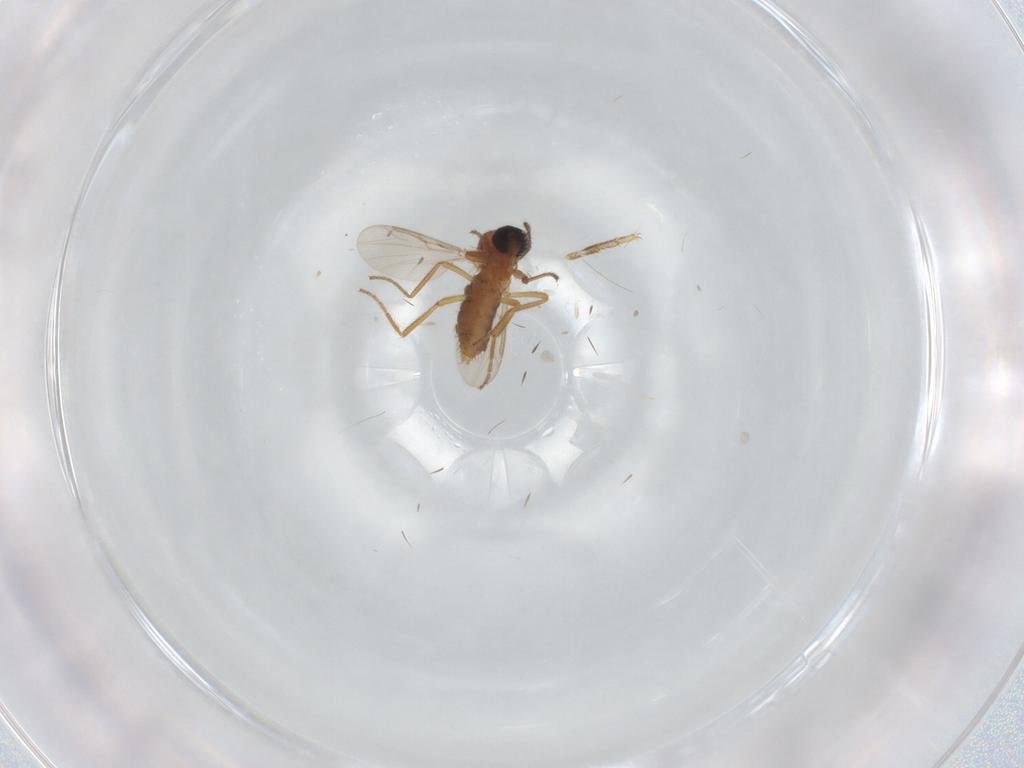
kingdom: Animalia
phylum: Arthropoda
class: Insecta
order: Diptera
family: Ceratopogonidae
